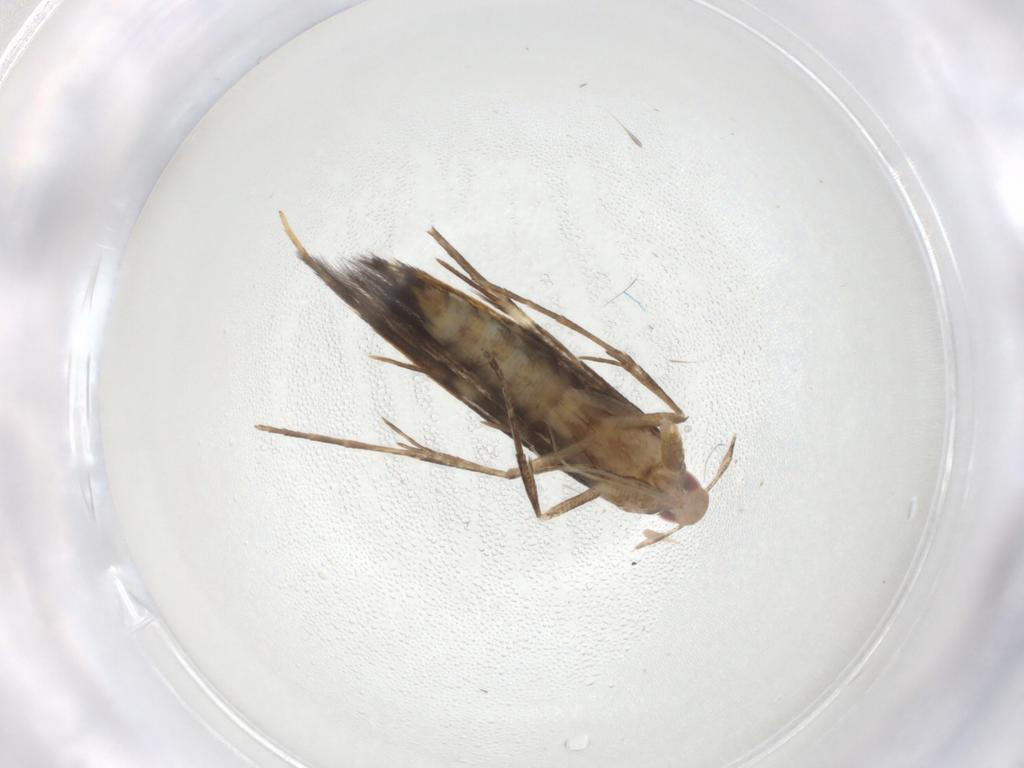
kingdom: Animalia
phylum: Arthropoda
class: Insecta
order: Lepidoptera
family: Cosmopterigidae
